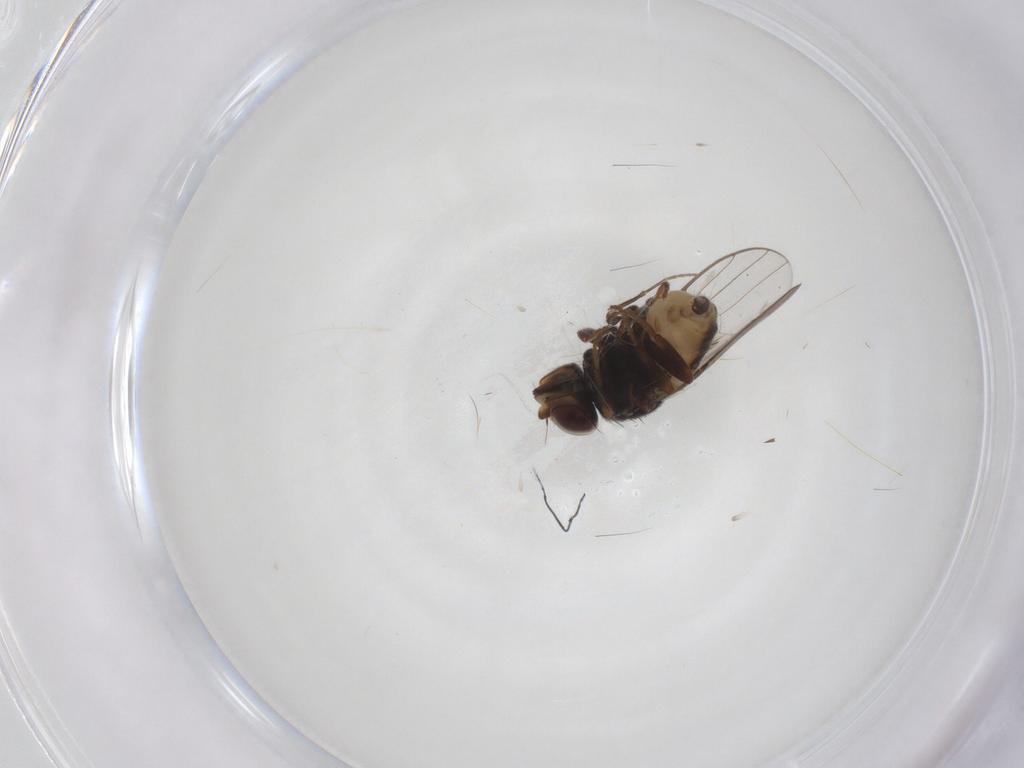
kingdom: Animalia
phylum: Arthropoda
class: Insecta
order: Diptera
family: Chloropidae
